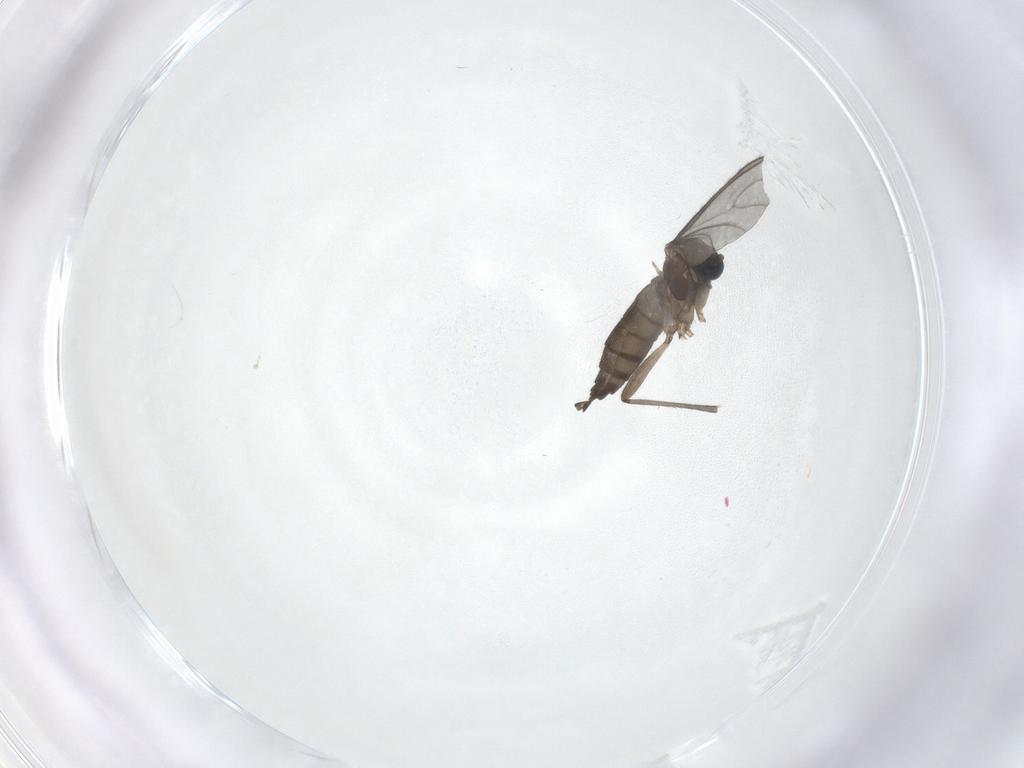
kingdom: Animalia
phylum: Arthropoda
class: Insecta
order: Diptera
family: Sciaridae
